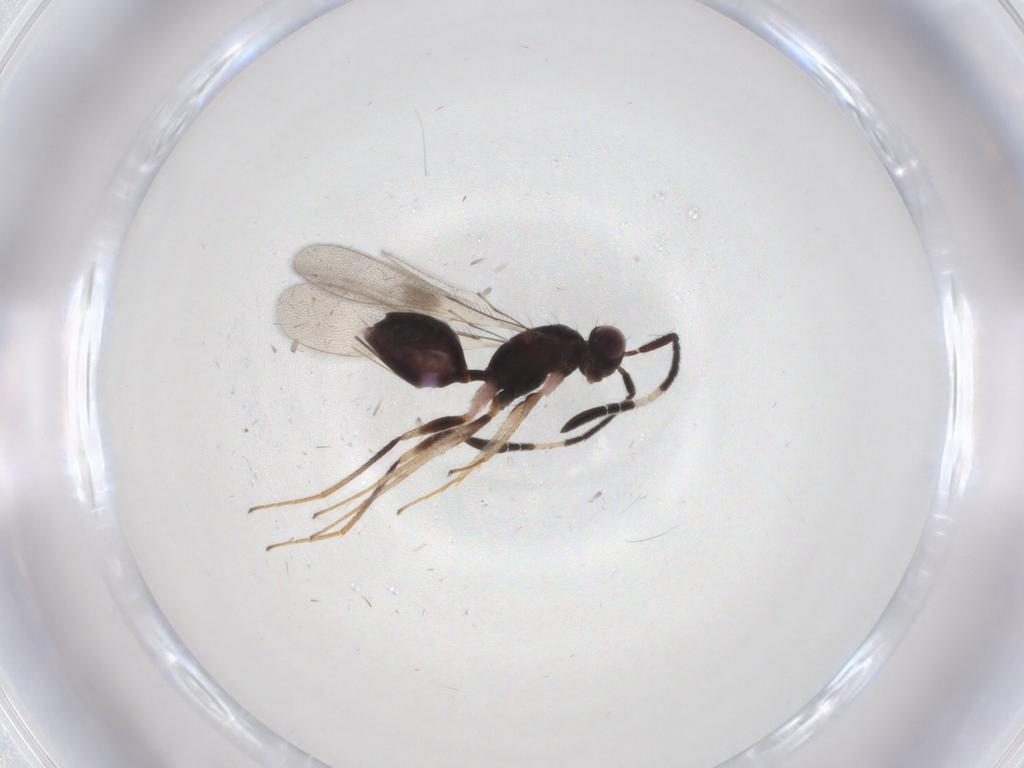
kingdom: Animalia
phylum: Arthropoda
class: Insecta
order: Hymenoptera
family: Mymaridae
